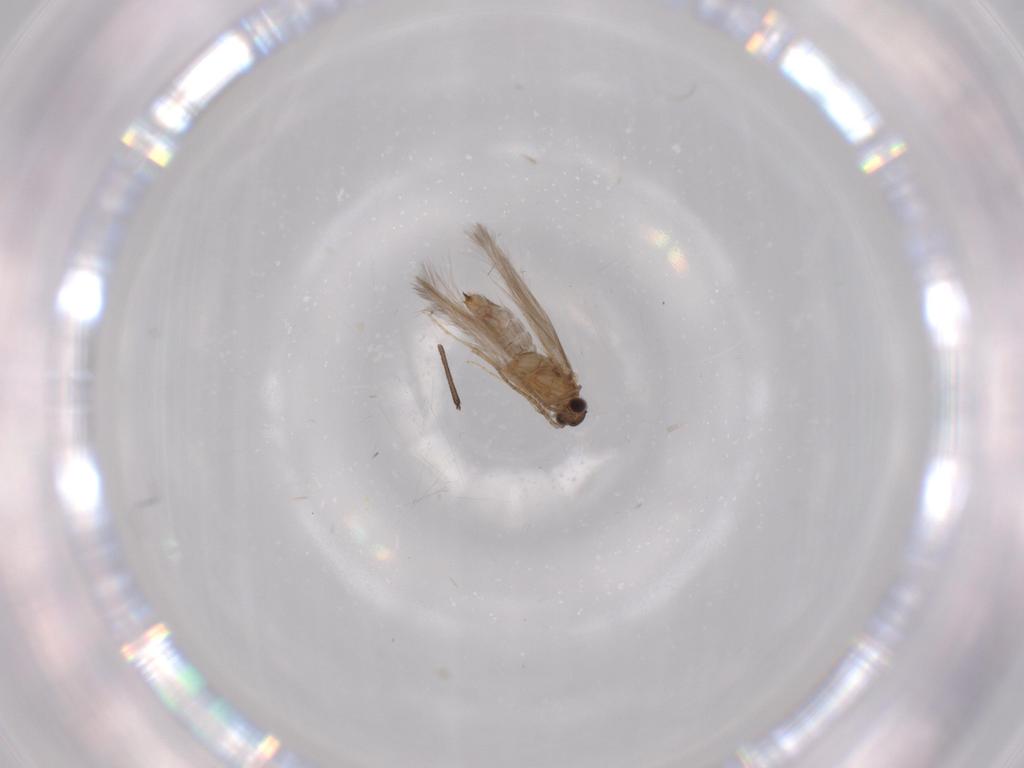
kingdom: Animalia
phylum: Arthropoda
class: Insecta
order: Trichoptera
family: Hydroptilidae
